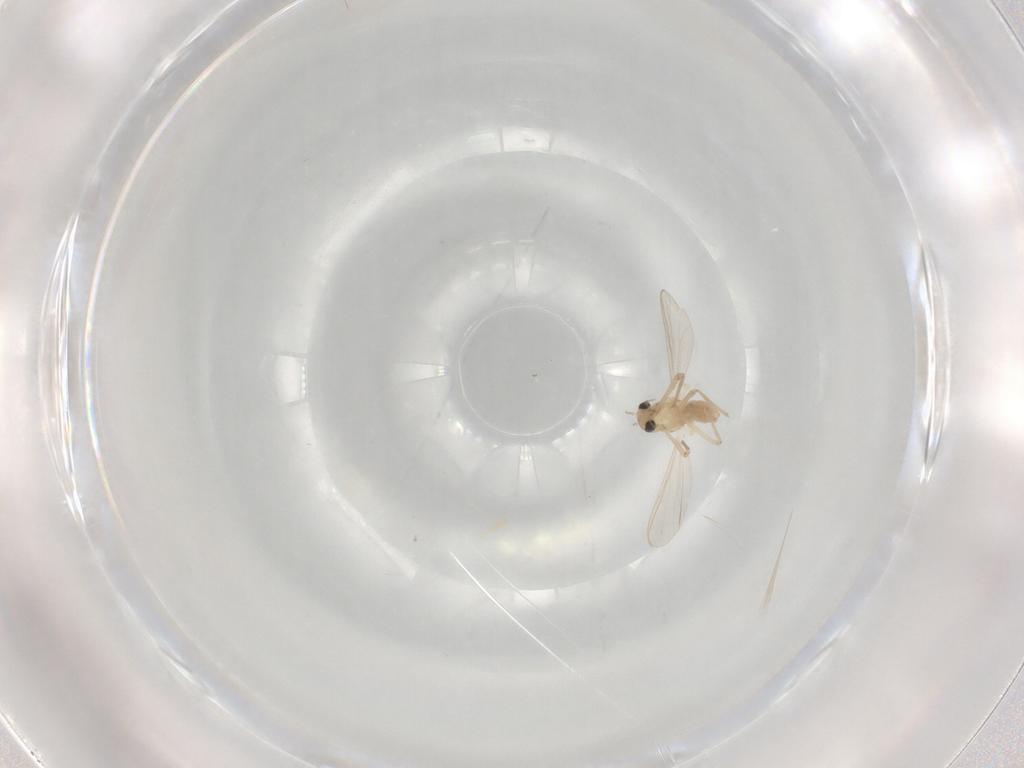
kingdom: Animalia
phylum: Arthropoda
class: Insecta
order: Diptera
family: Chironomidae
